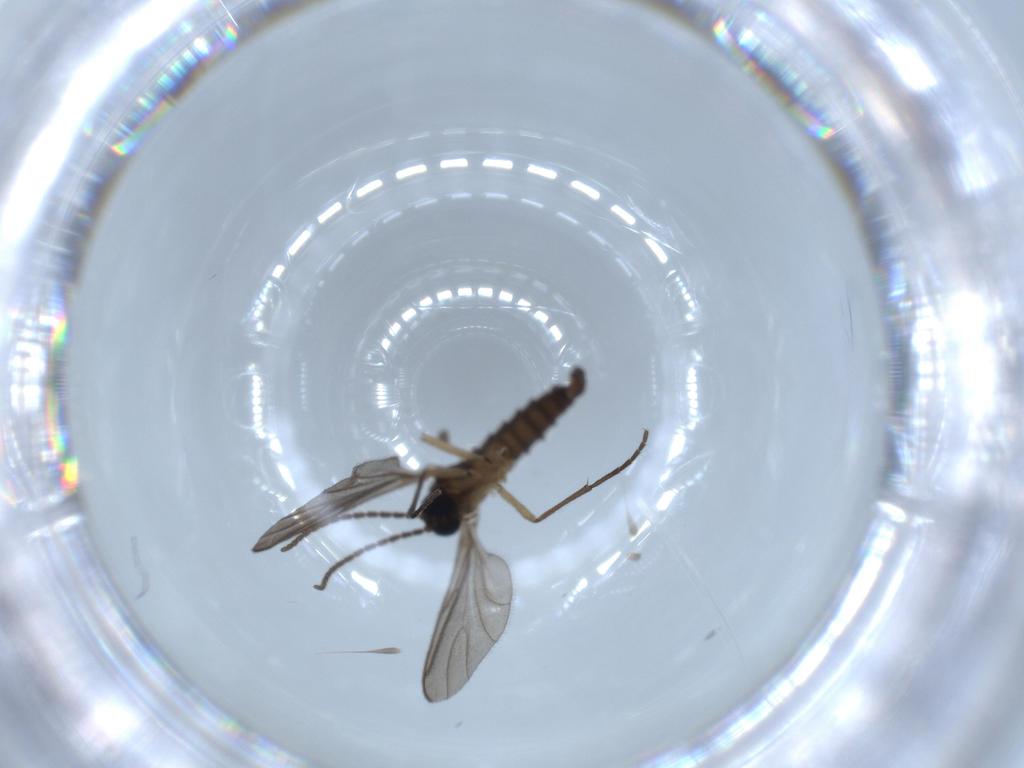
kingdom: Animalia
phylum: Arthropoda
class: Insecta
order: Diptera
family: Sciaridae
